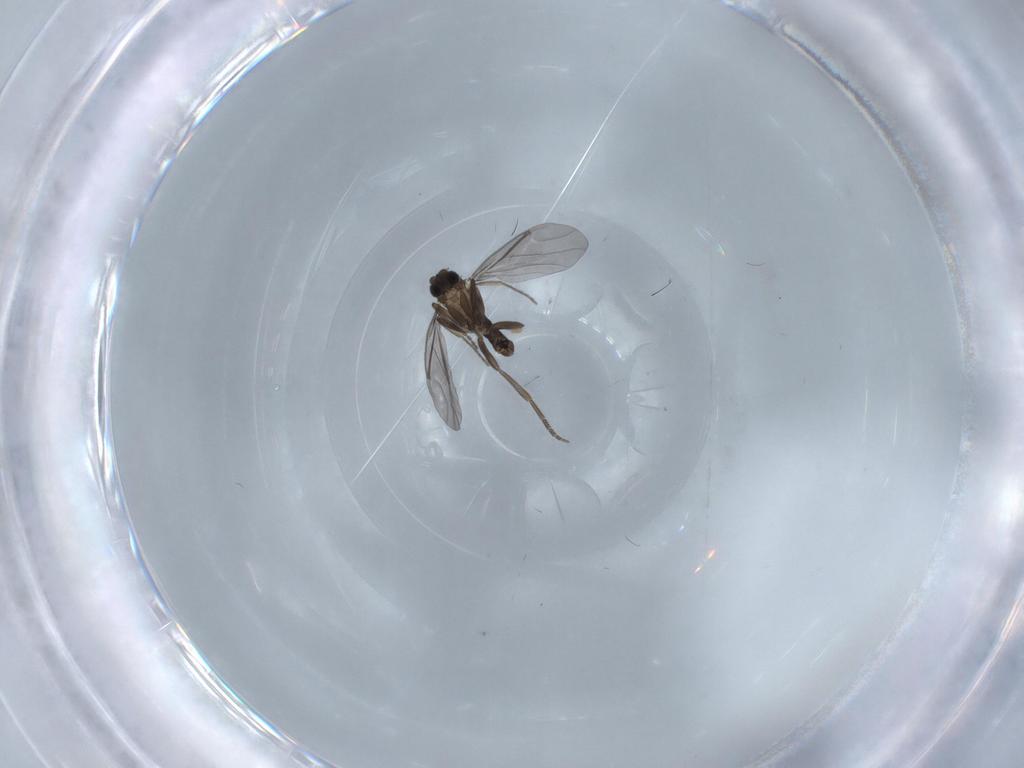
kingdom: Animalia
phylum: Arthropoda
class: Insecta
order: Diptera
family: Phoridae
